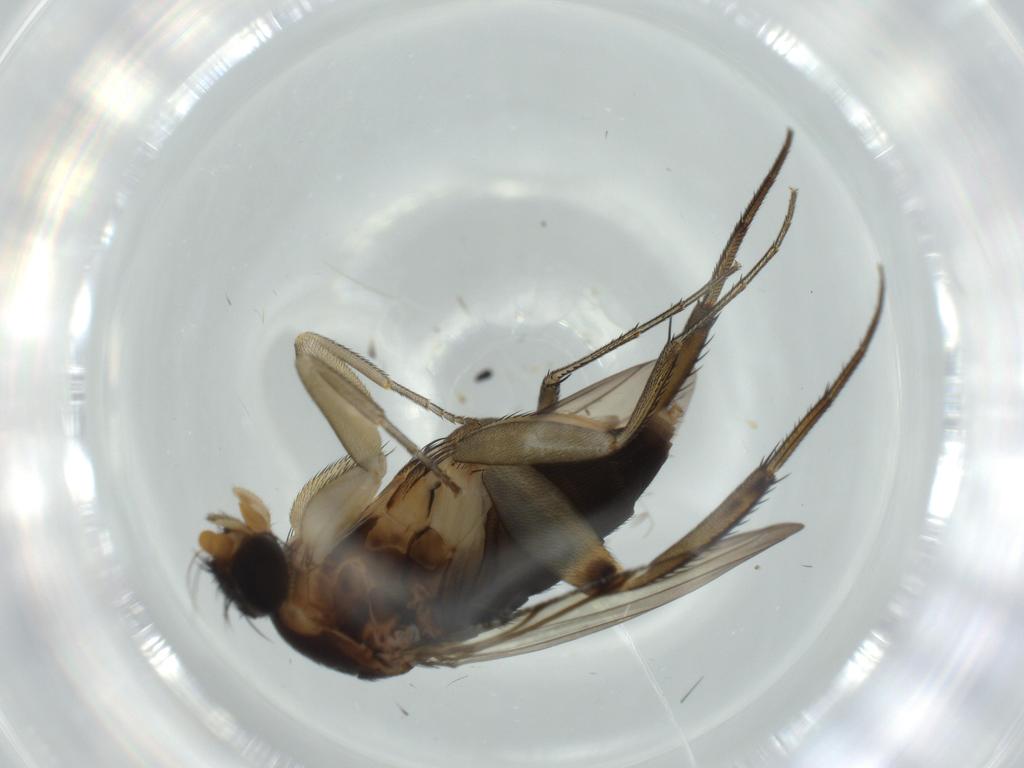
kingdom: Animalia
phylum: Arthropoda
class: Insecta
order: Diptera
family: Phoridae
